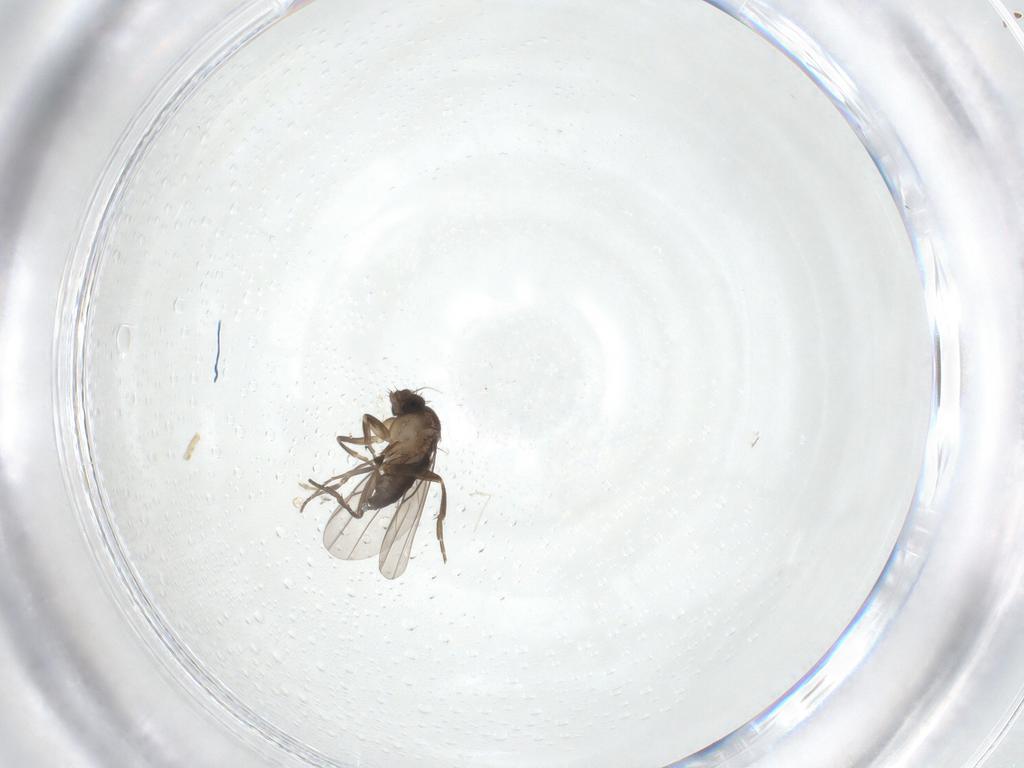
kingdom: Animalia
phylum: Arthropoda
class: Insecta
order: Diptera
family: Phoridae
